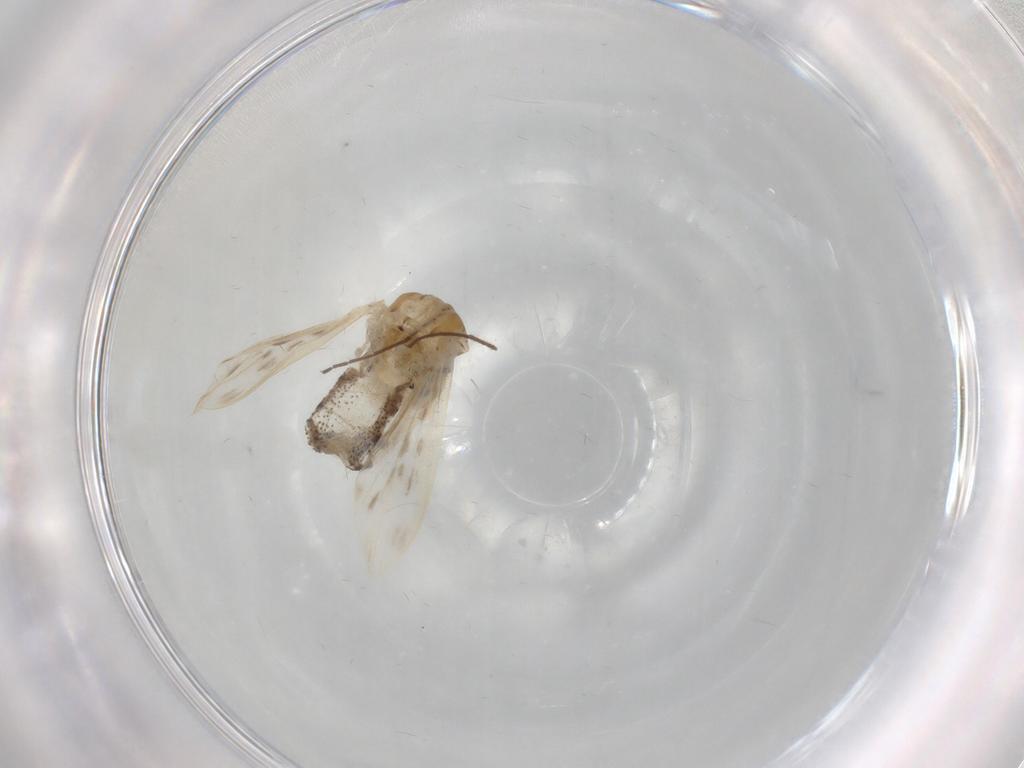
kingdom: Animalia
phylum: Arthropoda
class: Insecta
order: Diptera
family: Chaoboridae
